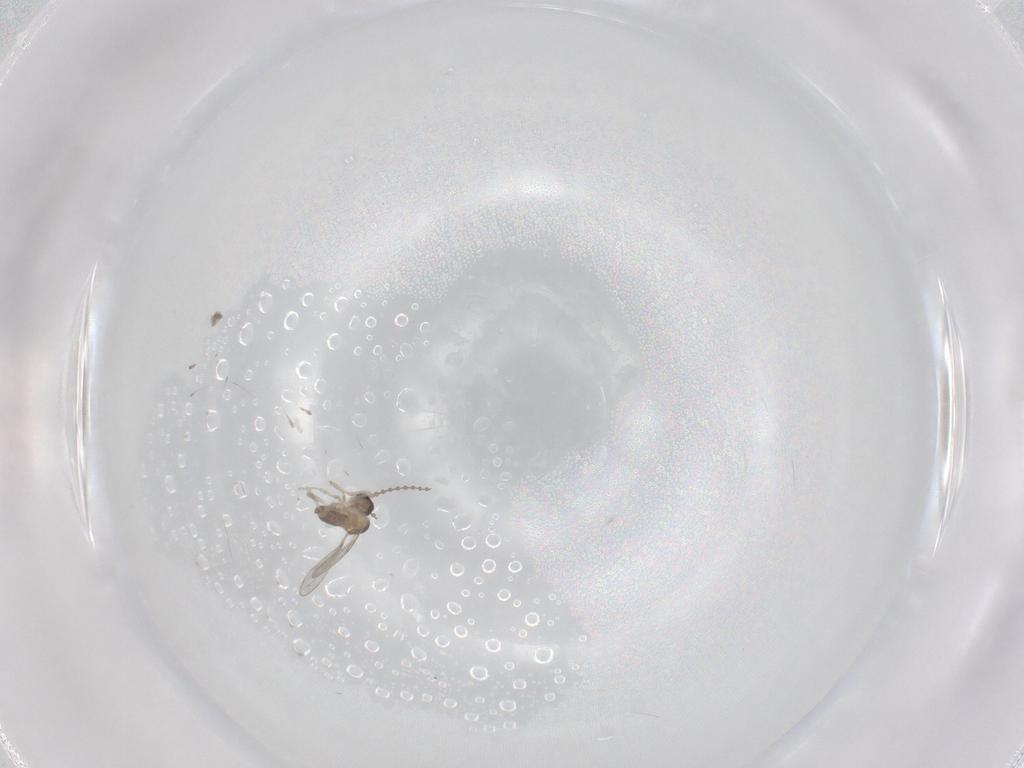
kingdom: Animalia
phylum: Arthropoda
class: Insecta
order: Diptera
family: Cecidomyiidae
